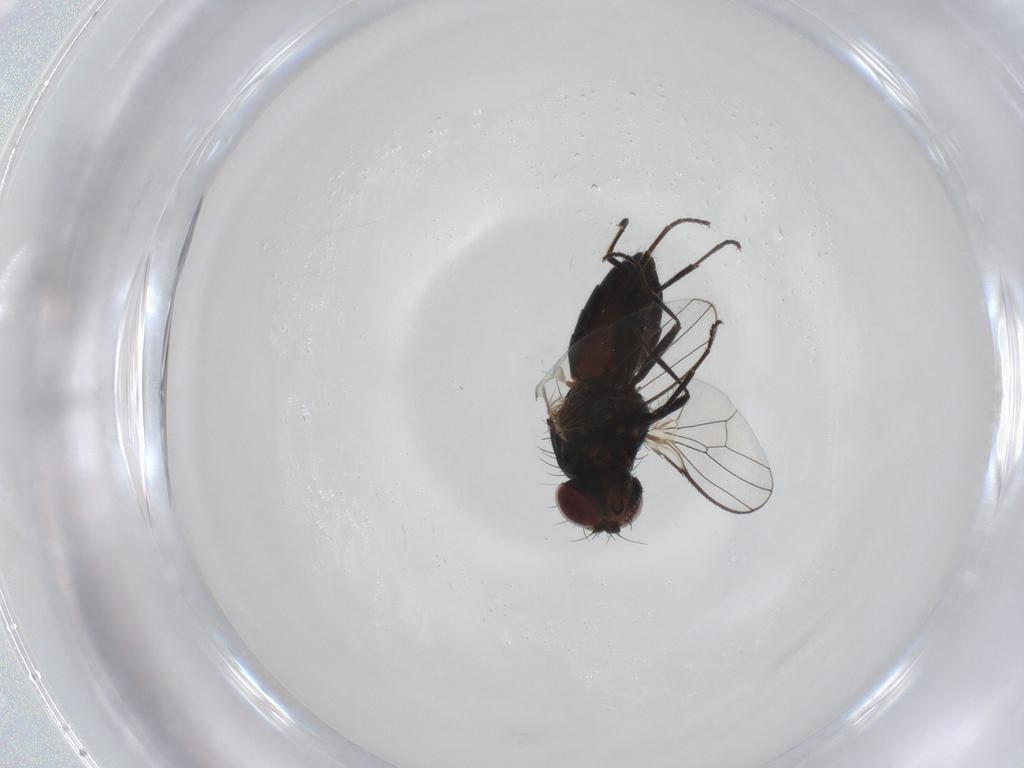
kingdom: Animalia
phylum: Arthropoda
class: Insecta
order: Diptera
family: Carnidae
